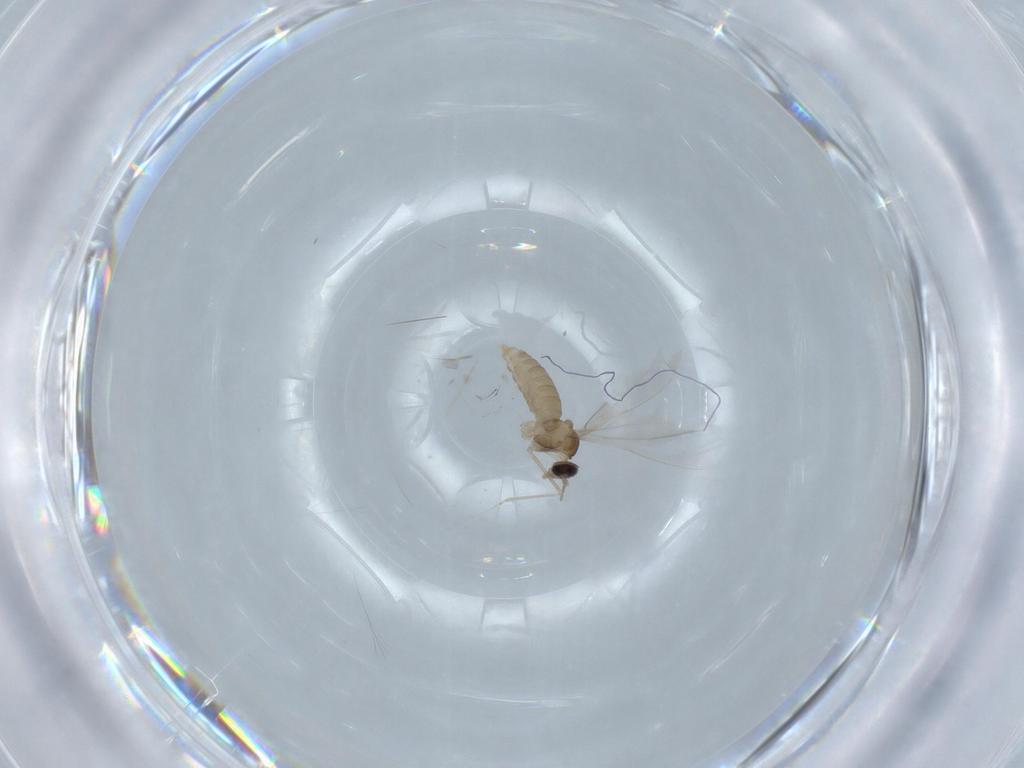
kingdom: Animalia
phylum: Arthropoda
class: Insecta
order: Diptera
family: Cecidomyiidae
